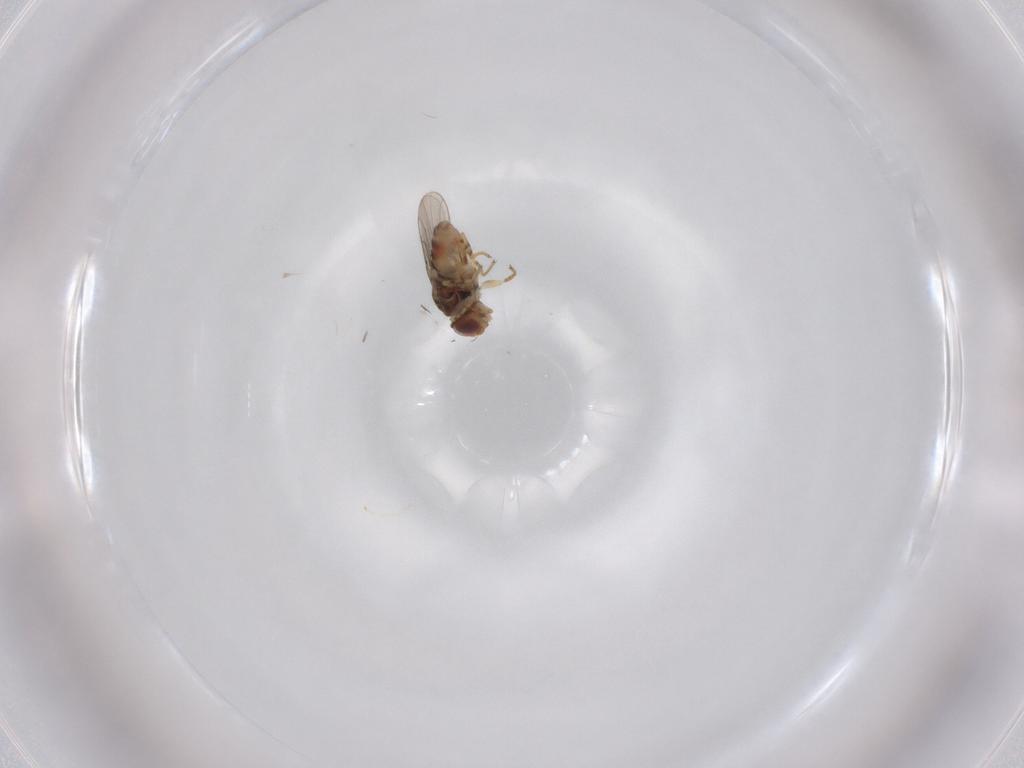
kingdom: Animalia
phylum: Arthropoda
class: Insecta
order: Diptera
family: Chloropidae
